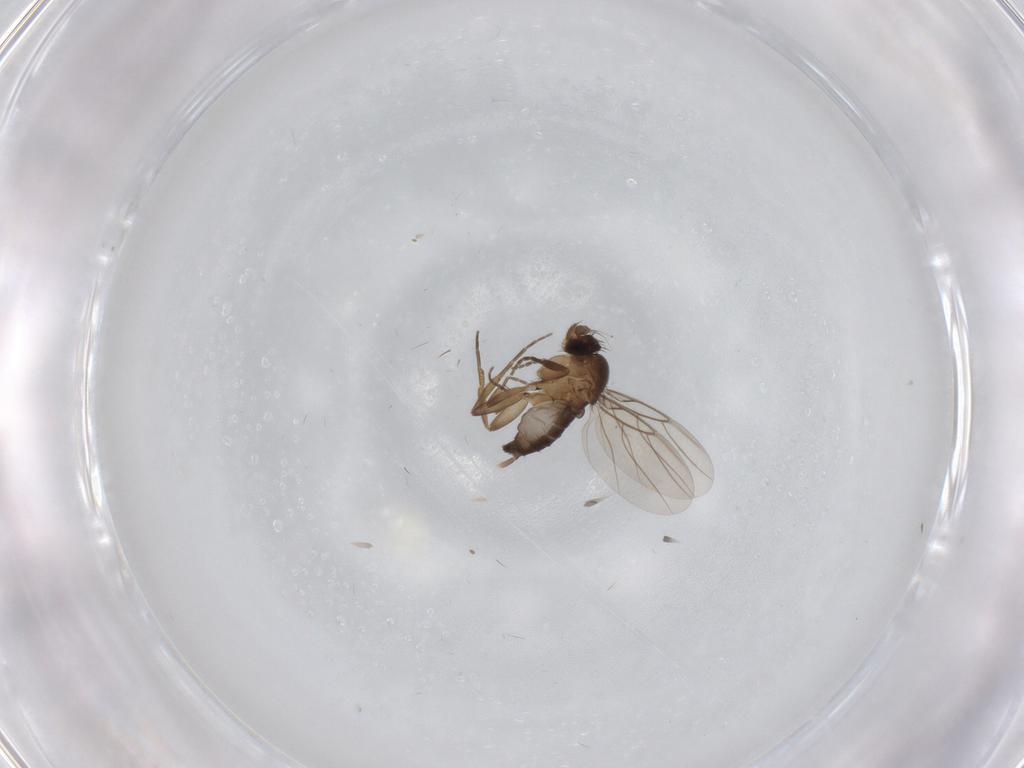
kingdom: Animalia
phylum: Arthropoda
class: Insecta
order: Diptera
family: Phoridae
